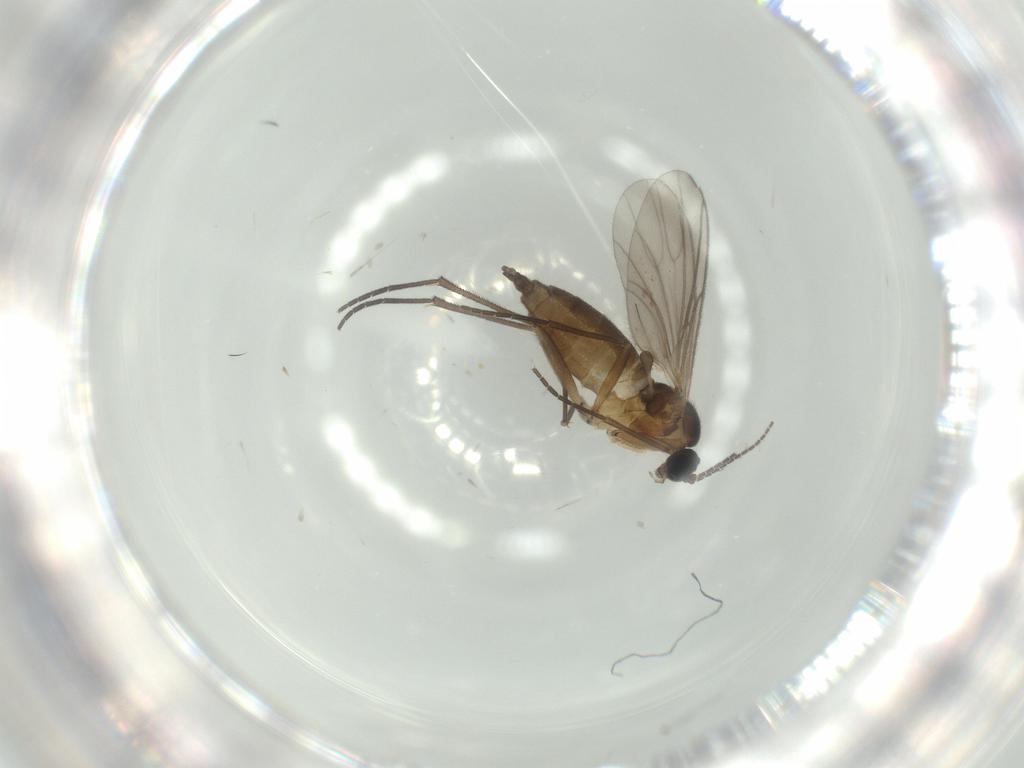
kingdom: Animalia
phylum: Arthropoda
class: Insecta
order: Diptera
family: Sciaridae
